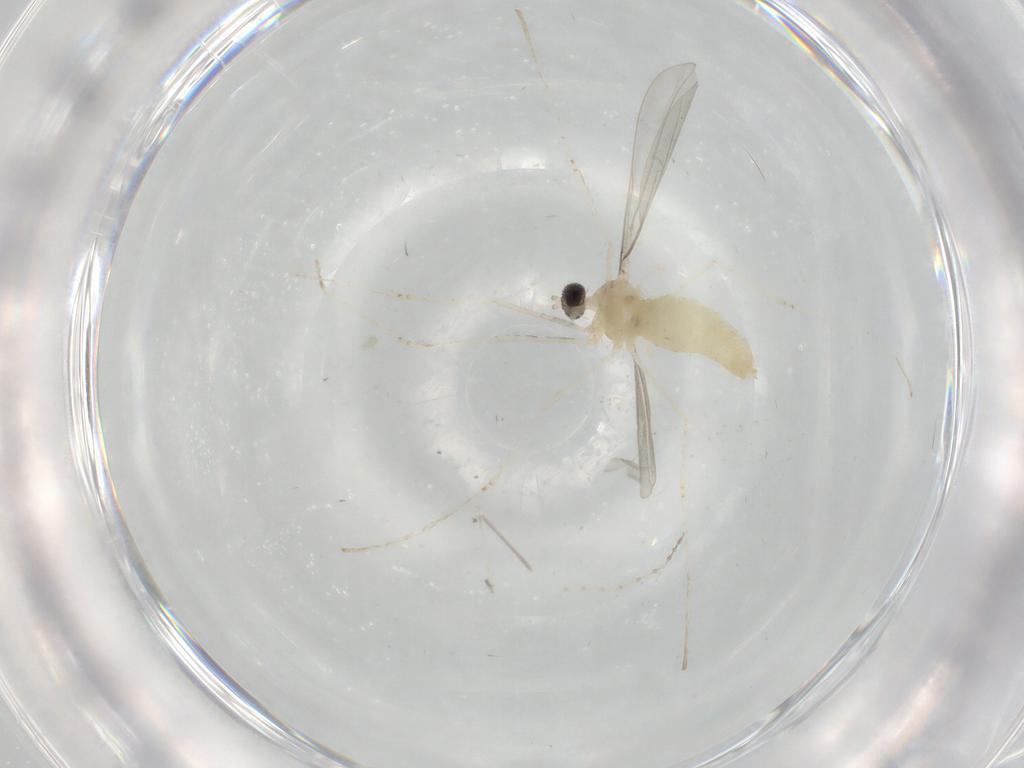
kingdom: Animalia
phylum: Arthropoda
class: Insecta
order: Diptera
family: Cecidomyiidae
